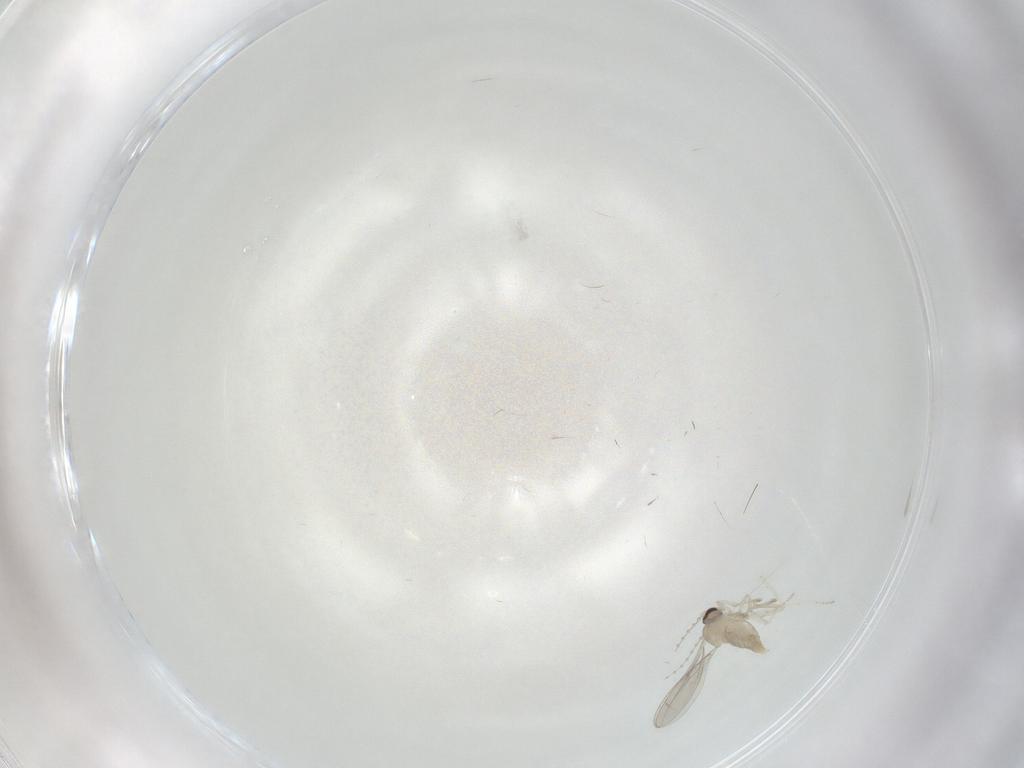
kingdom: Animalia
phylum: Arthropoda
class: Insecta
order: Diptera
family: Cecidomyiidae
